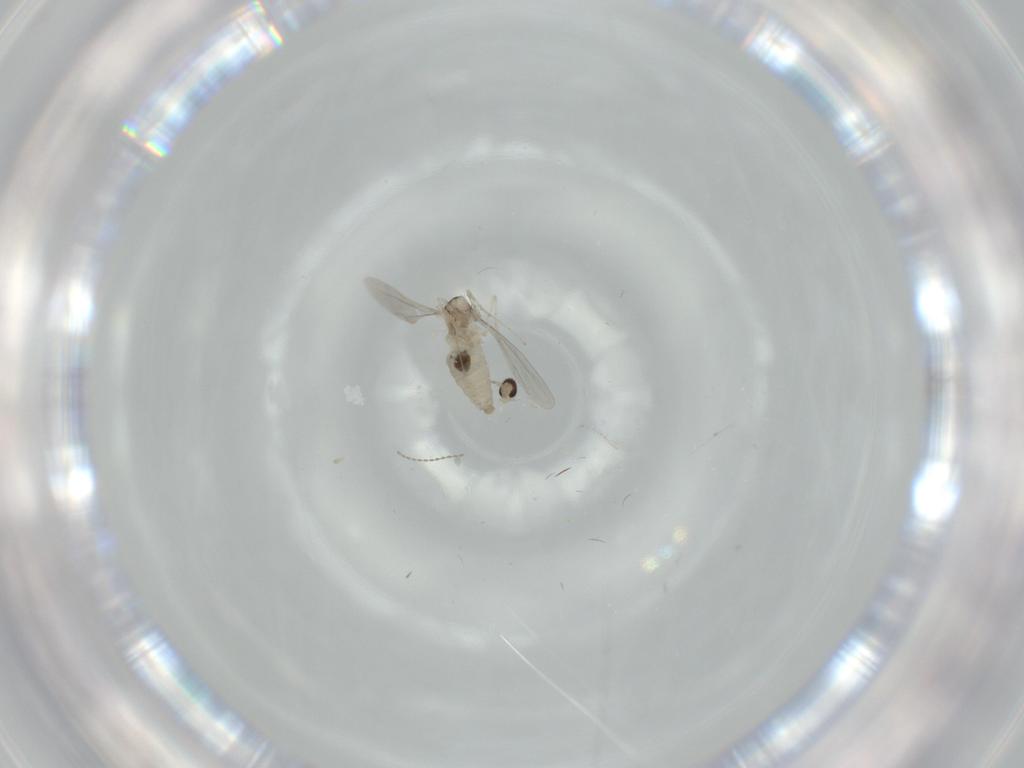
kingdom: Animalia
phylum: Arthropoda
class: Insecta
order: Diptera
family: Cecidomyiidae
